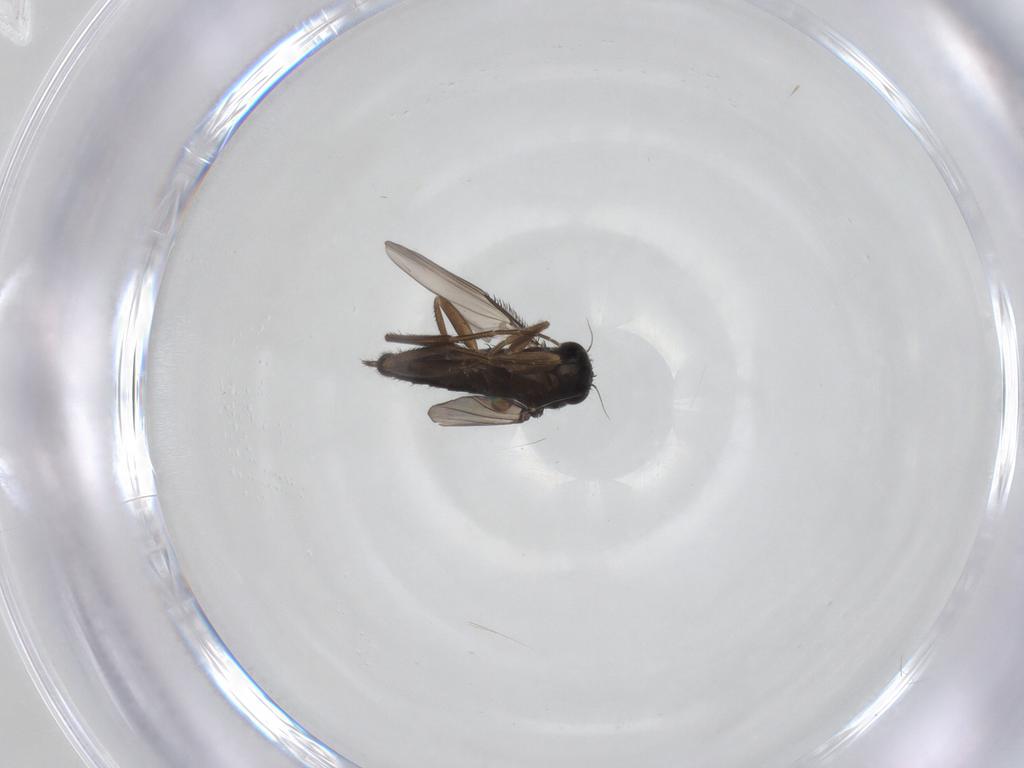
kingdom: Animalia
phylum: Arthropoda
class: Insecta
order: Diptera
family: Phoridae
